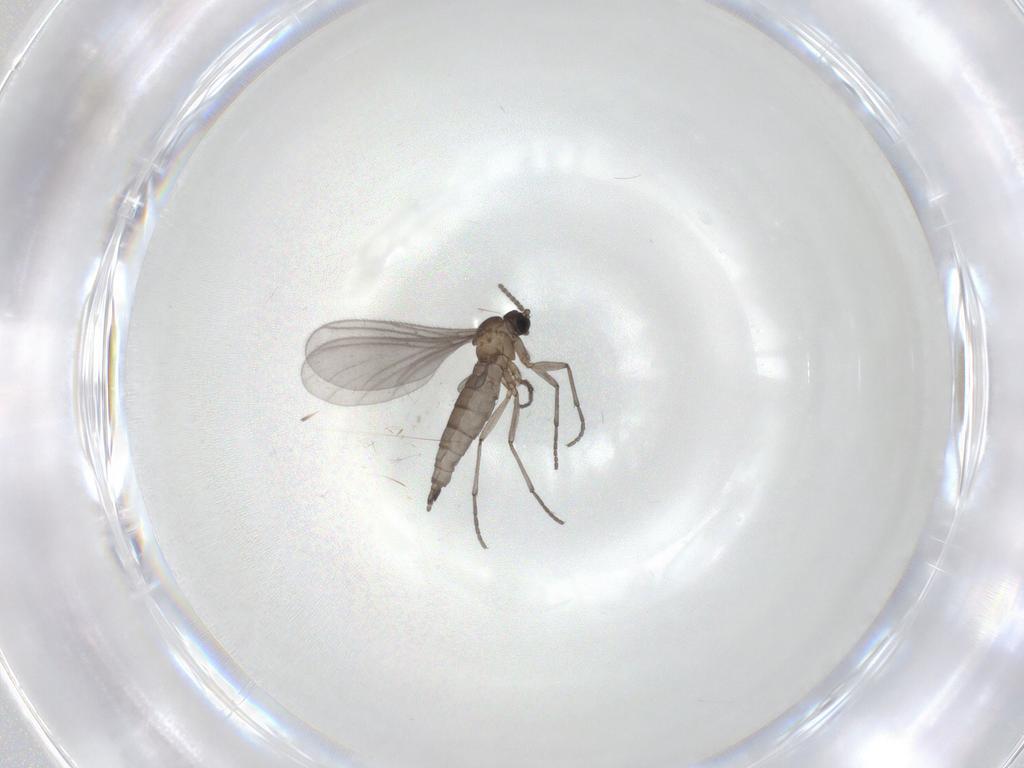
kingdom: Animalia
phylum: Arthropoda
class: Insecta
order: Diptera
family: Sciaridae
